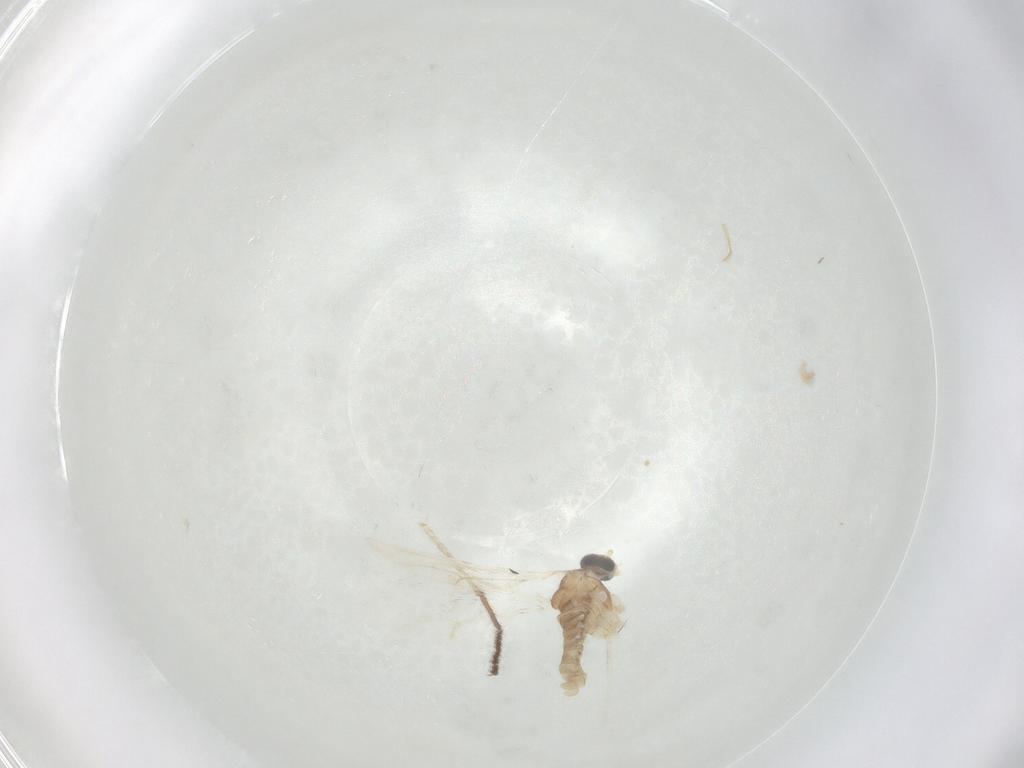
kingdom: Animalia
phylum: Arthropoda
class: Insecta
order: Diptera
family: Chironomidae
